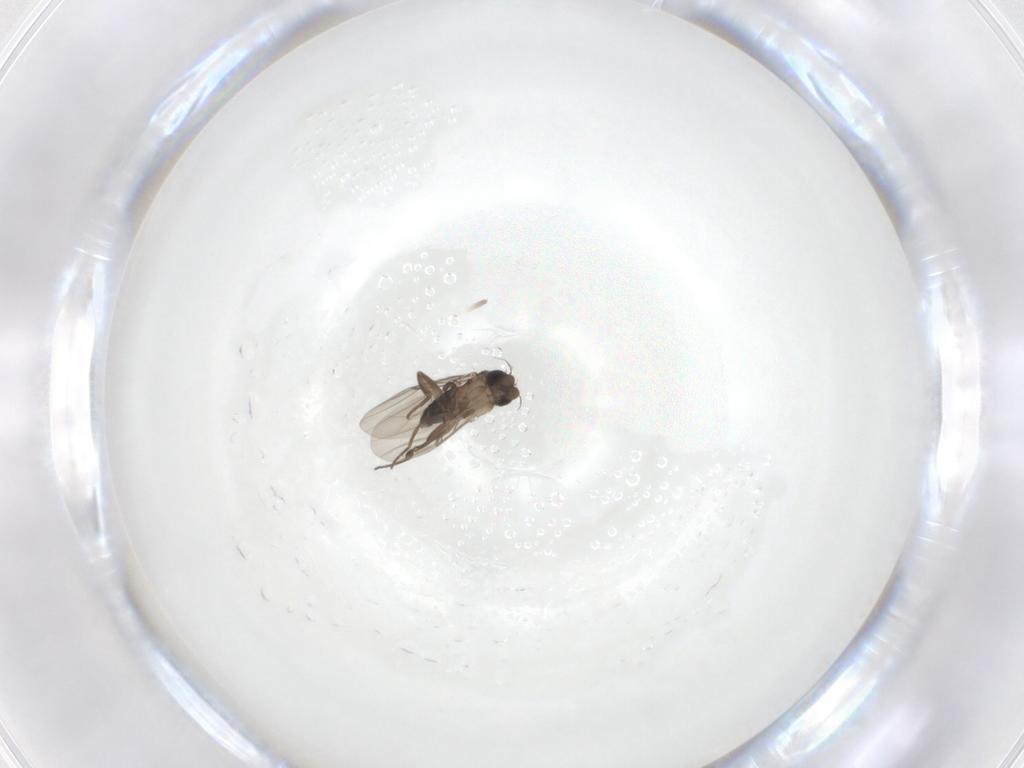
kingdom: Animalia
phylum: Arthropoda
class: Insecta
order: Diptera
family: Phoridae
